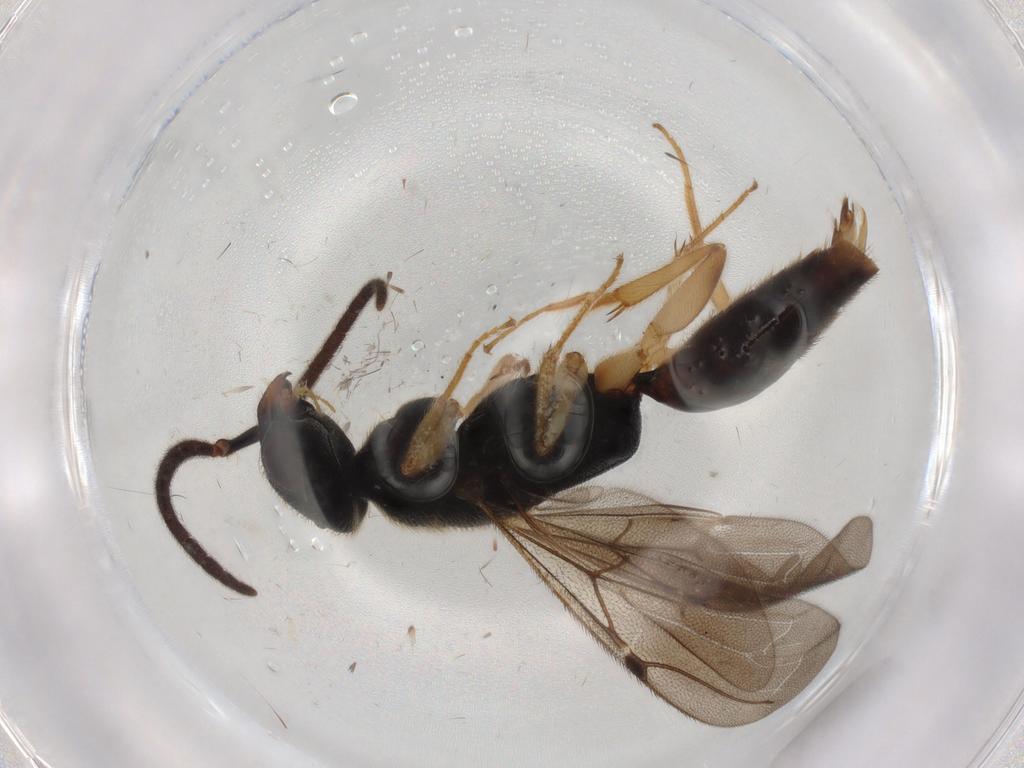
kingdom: Animalia
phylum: Arthropoda
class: Insecta
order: Hymenoptera
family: Bethylidae
